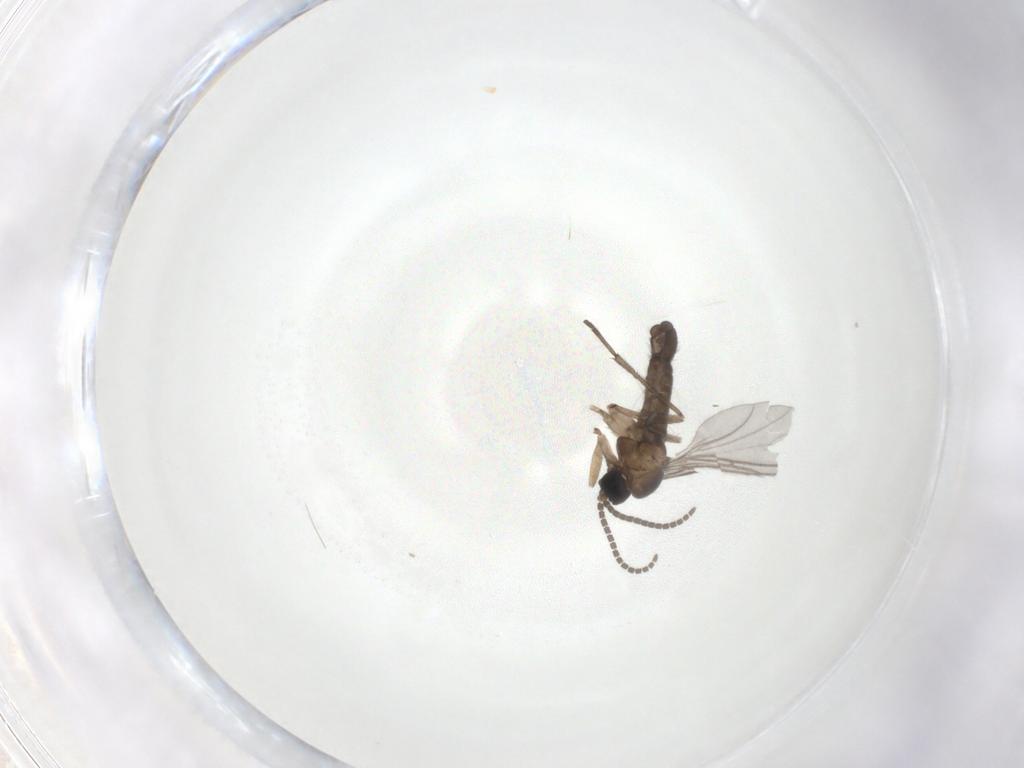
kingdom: Animalia
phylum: Arthropoda
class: Insecta
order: Diptera
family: Sciaridae
